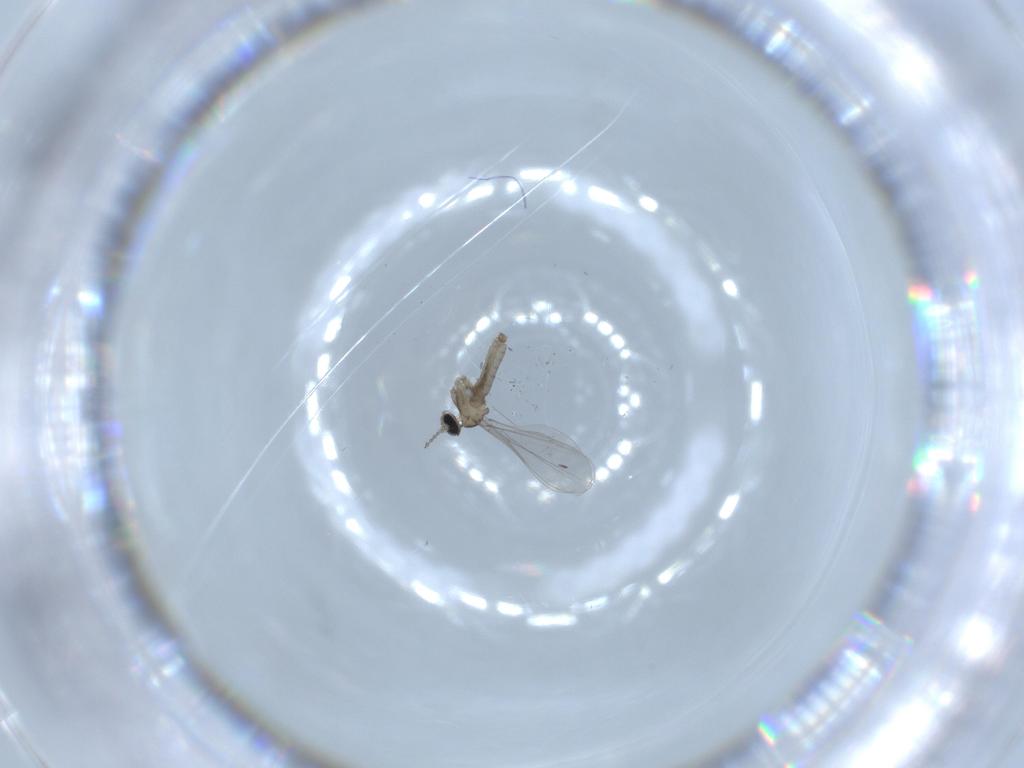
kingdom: Animalia
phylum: Arthropoda
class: Insecta
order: Diptera
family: Cecidomyiidae
